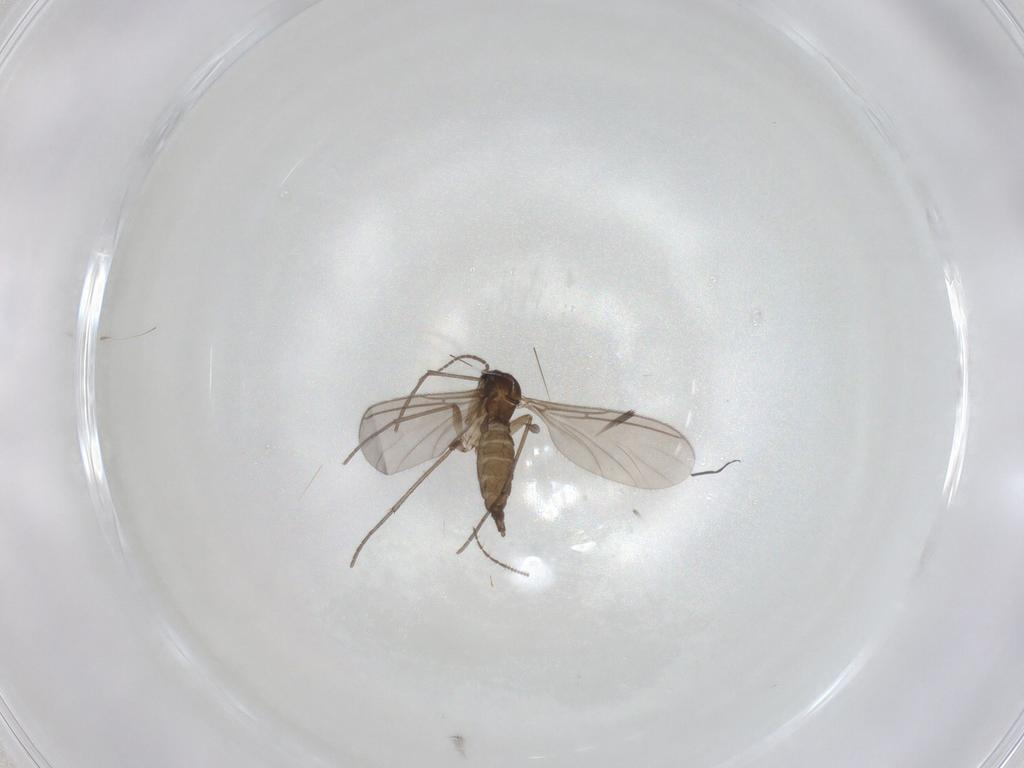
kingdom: Animalia
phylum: Arthropoda
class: Insecta
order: Diptera
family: Sciaridae
